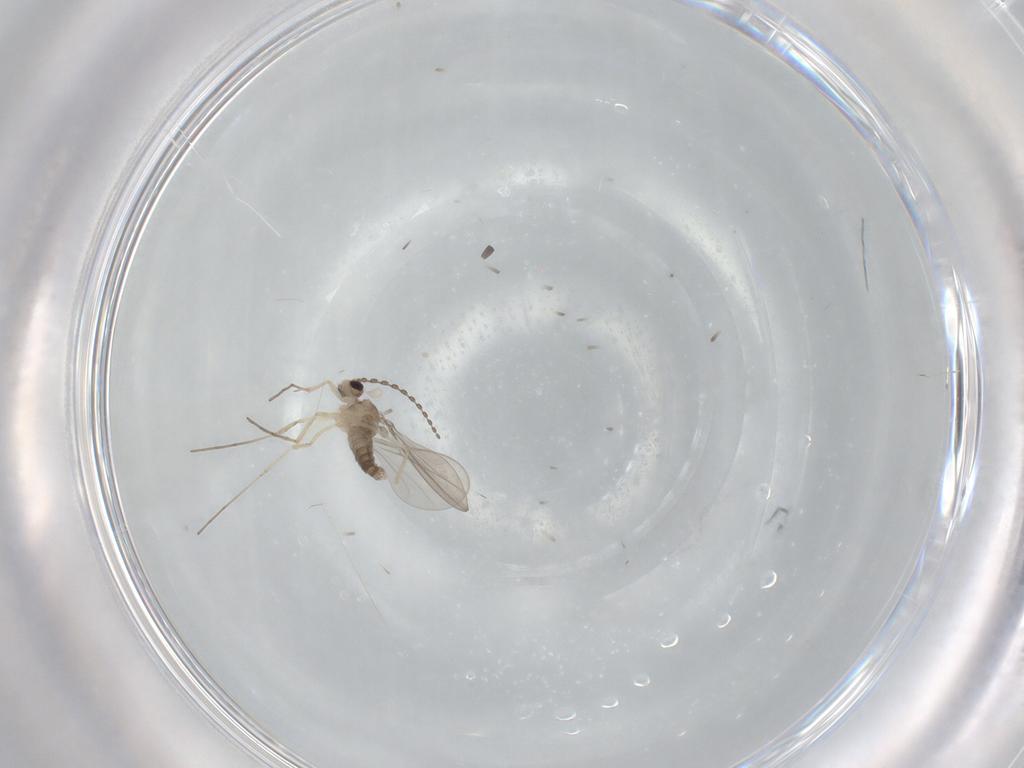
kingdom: Animalia
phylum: Arthropoda
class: Insecta
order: Diptera
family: Cecidomyiidae
